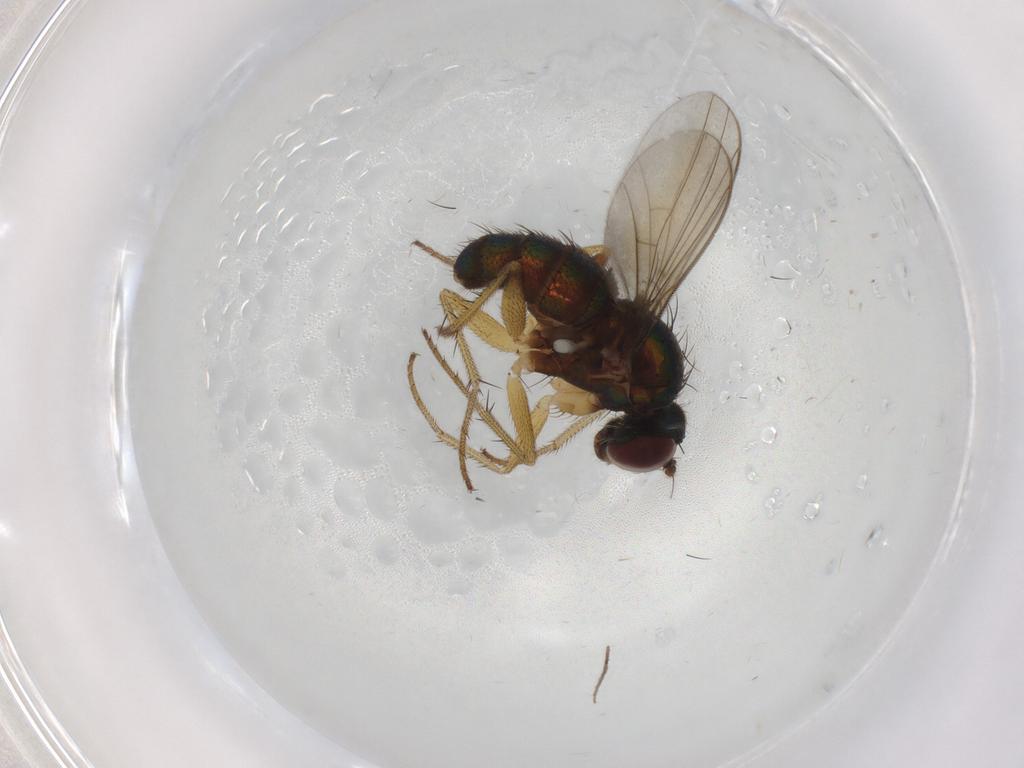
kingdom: Animalia
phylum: Arthropoda
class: Insecta
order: Diptera
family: Dolichopodidae
